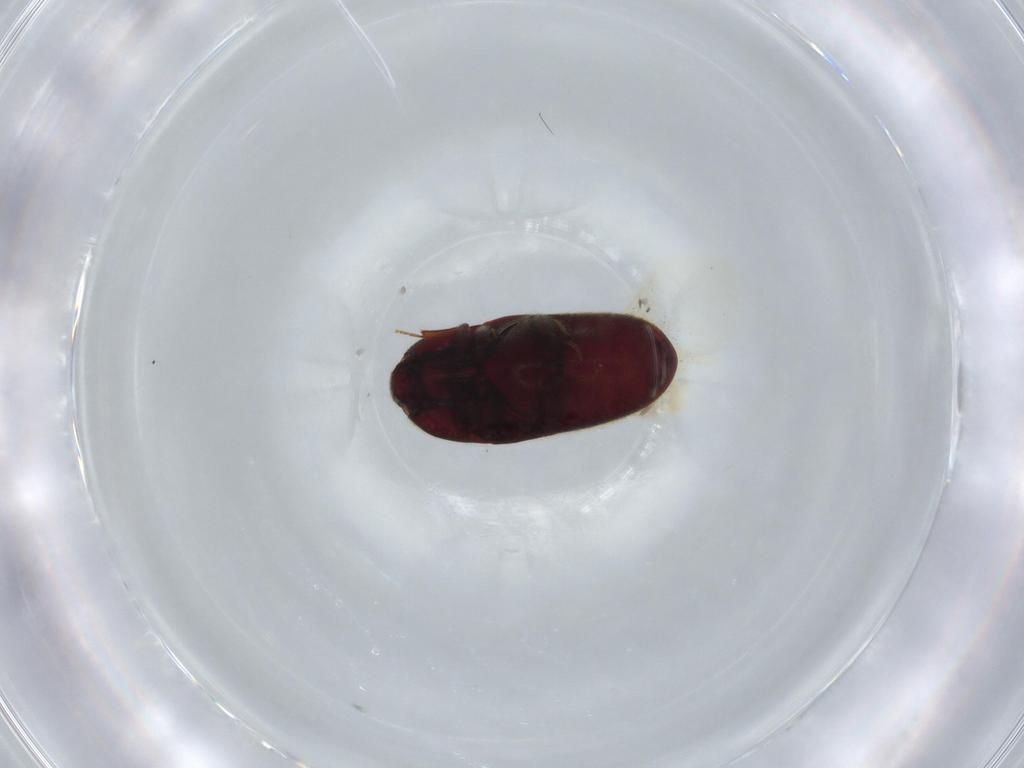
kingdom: Animalia
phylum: Arthropoda
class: Insecta
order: Coleoptera
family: Throscidae
